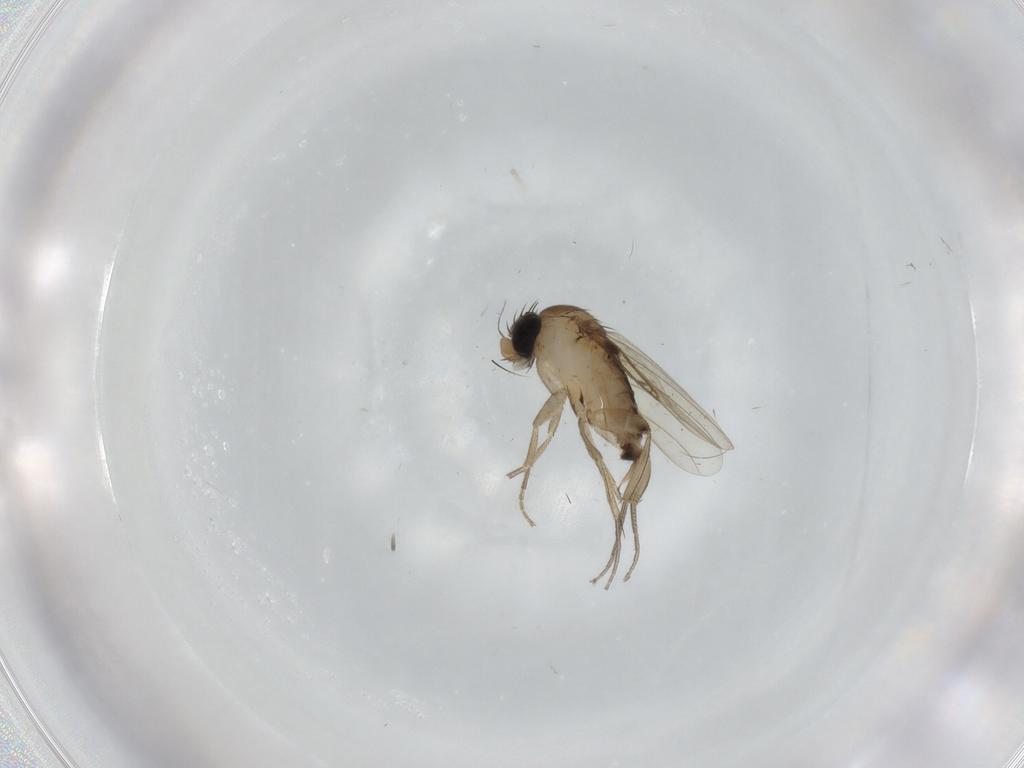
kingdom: Animalia
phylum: Arthropoda
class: Insecta
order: Diptera
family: Phoridae
